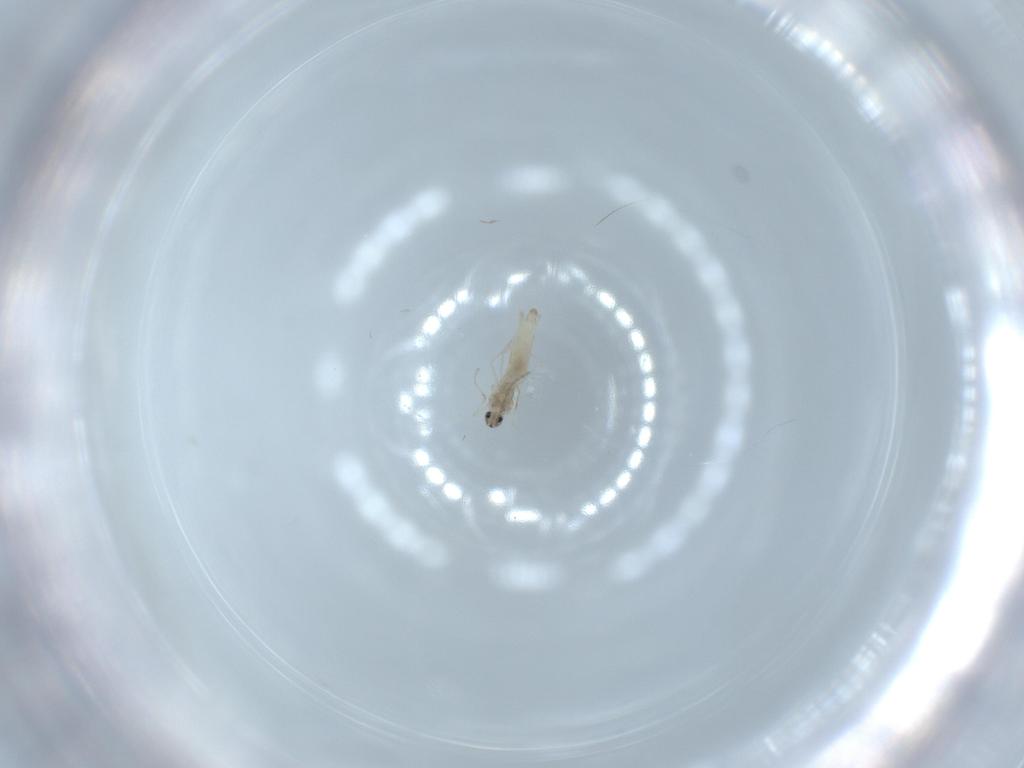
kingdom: Animalia
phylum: Arthropoda
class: Insecta
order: Diptera
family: Cecidomyiidae
